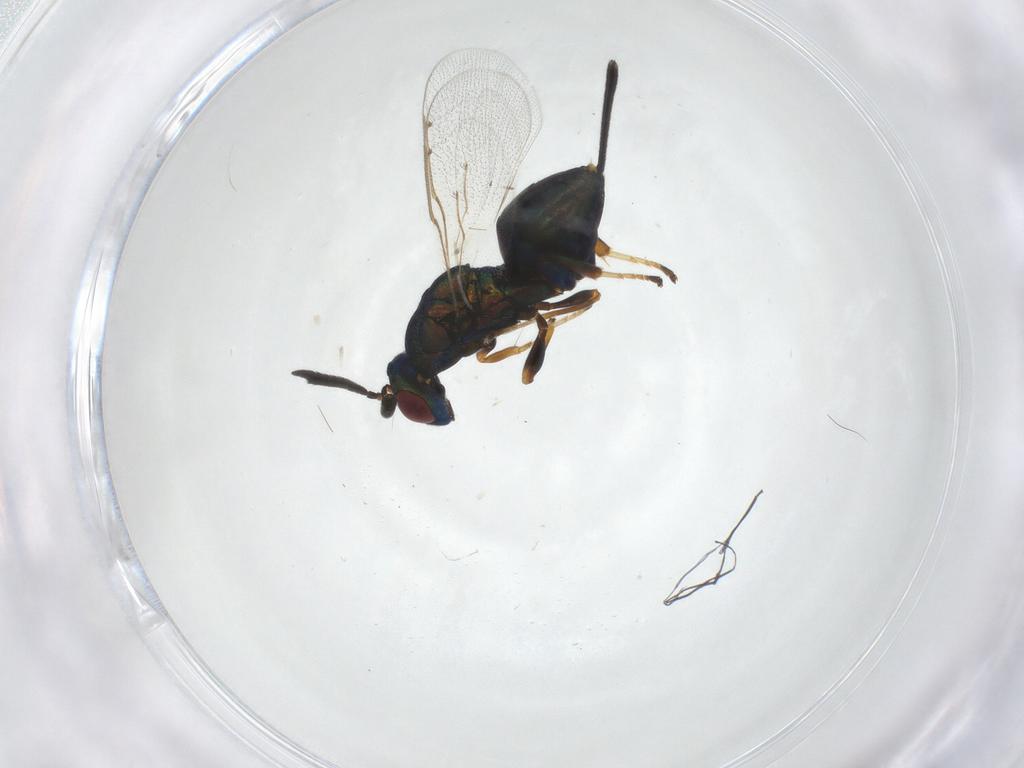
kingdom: Animalia
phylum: Arthropoda
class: Insecta
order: Hymenoptera
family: Torymidae
